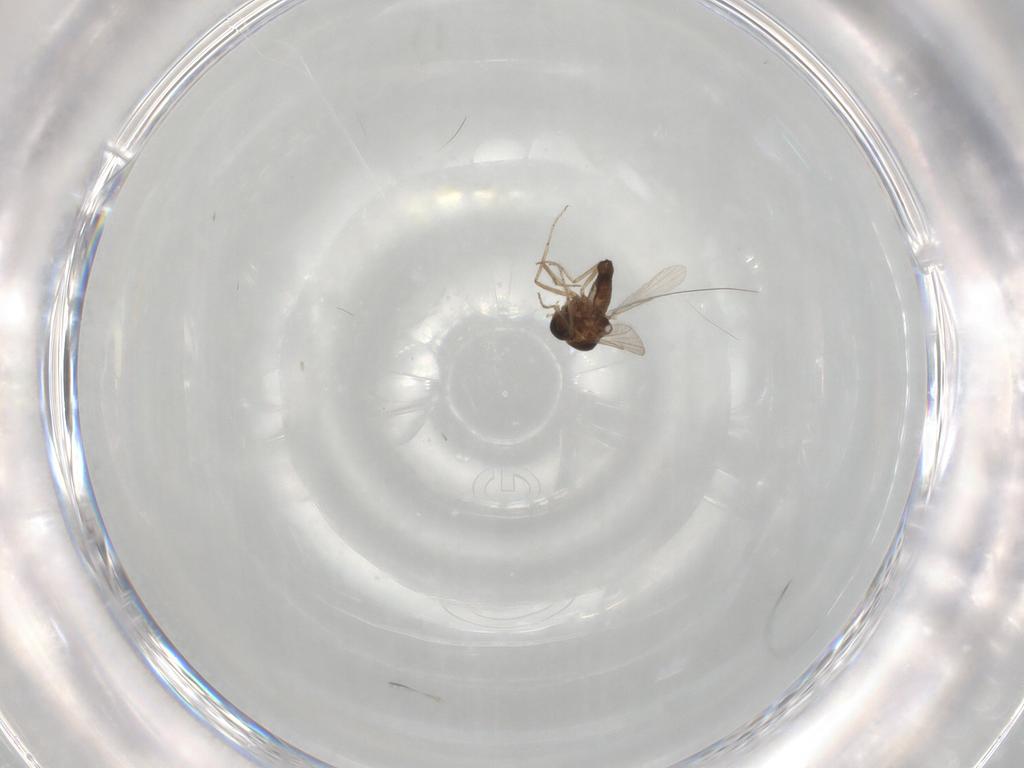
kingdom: Animalia
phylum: Arthropoda
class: Insecta
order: Diptera
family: Ceratopogonidae
